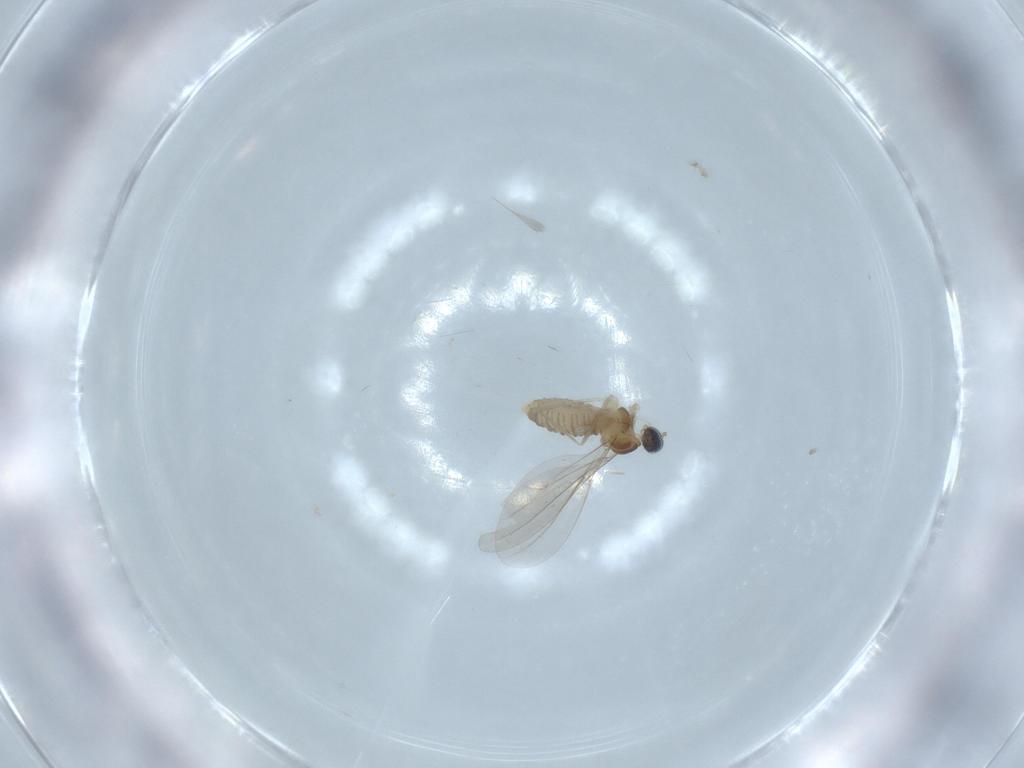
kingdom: Animalia
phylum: Arthropoda
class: Insecta
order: Diptera
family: Cecidomyiidae
